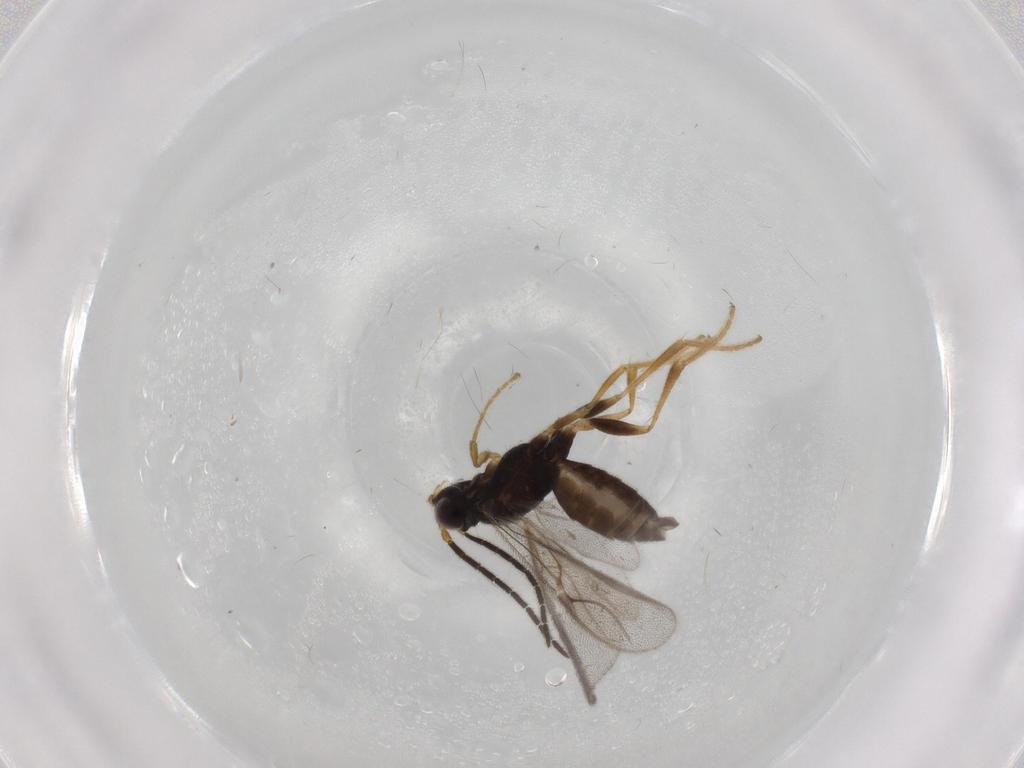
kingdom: Animalia
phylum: Arthropoda
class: Insecta
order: Hymenoptera
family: Dryinidae
